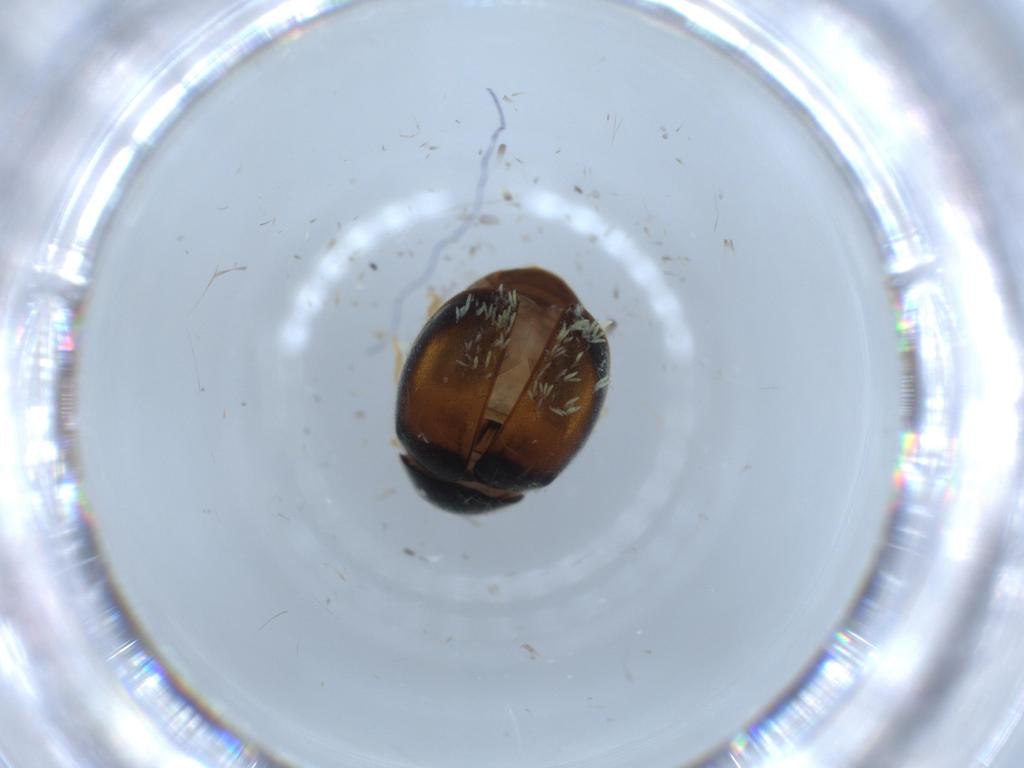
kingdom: Animalia
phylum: Arthropoda
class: Insecta
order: Coleoptera
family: Coccinellidae
